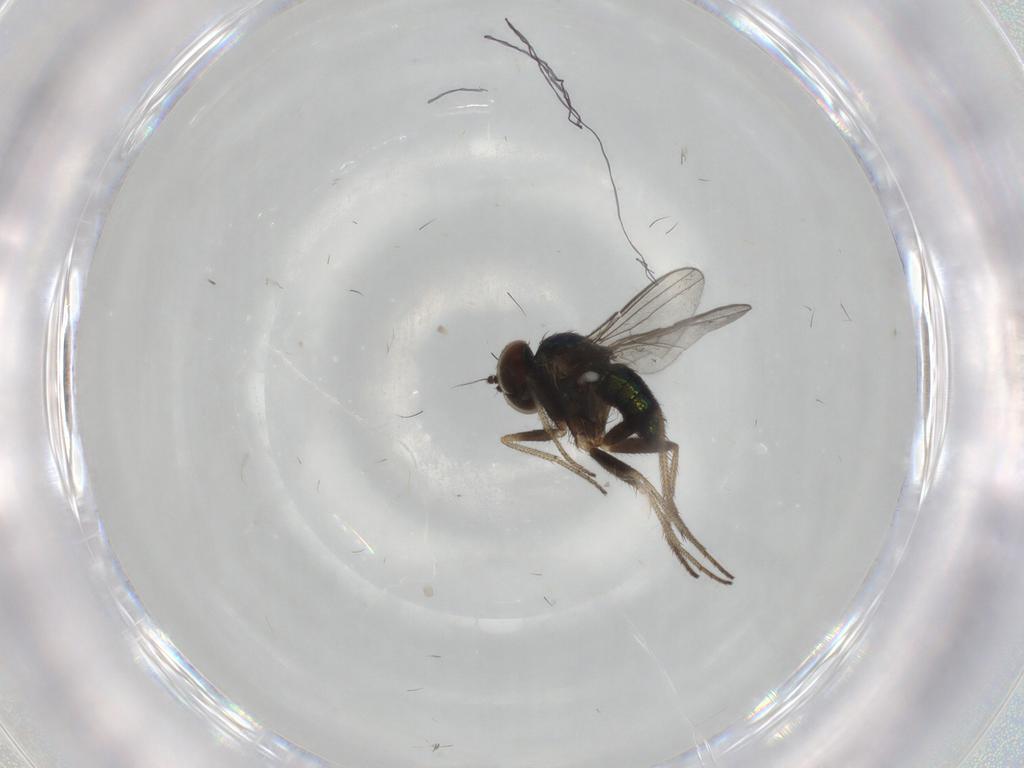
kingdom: Animalia
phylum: Arthropoda
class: Insecta
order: Diptera
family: Dolichopodidae
